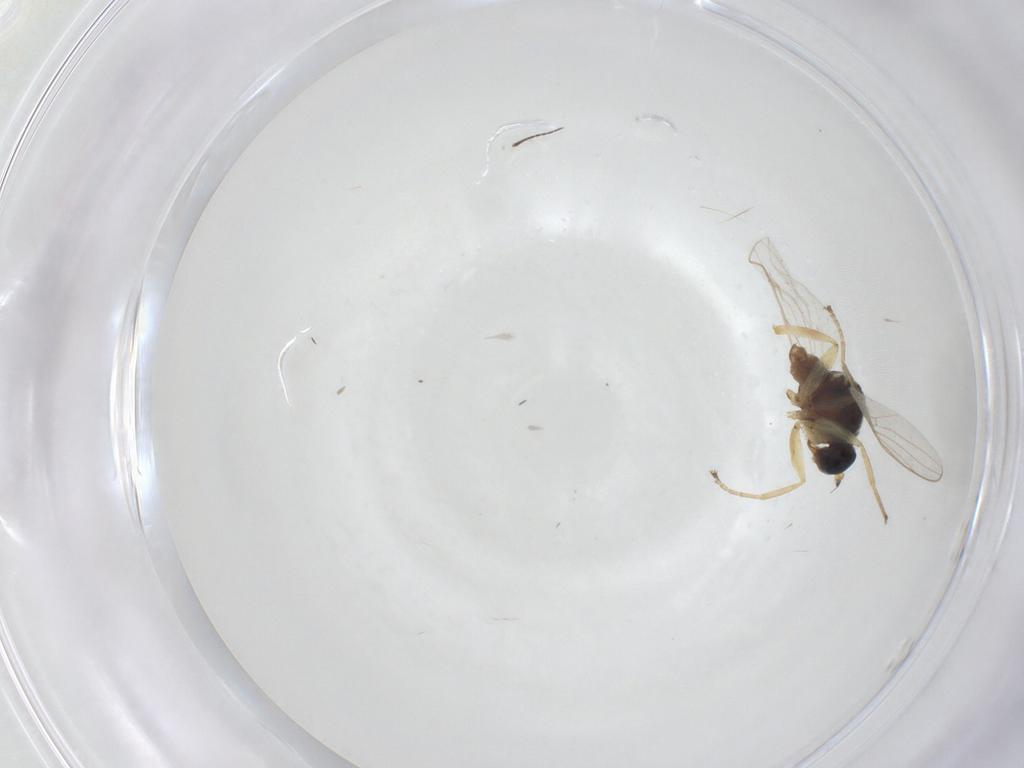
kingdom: Animalia
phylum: Arthropoda
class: Insecta
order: Diptera
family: Hybotidae
